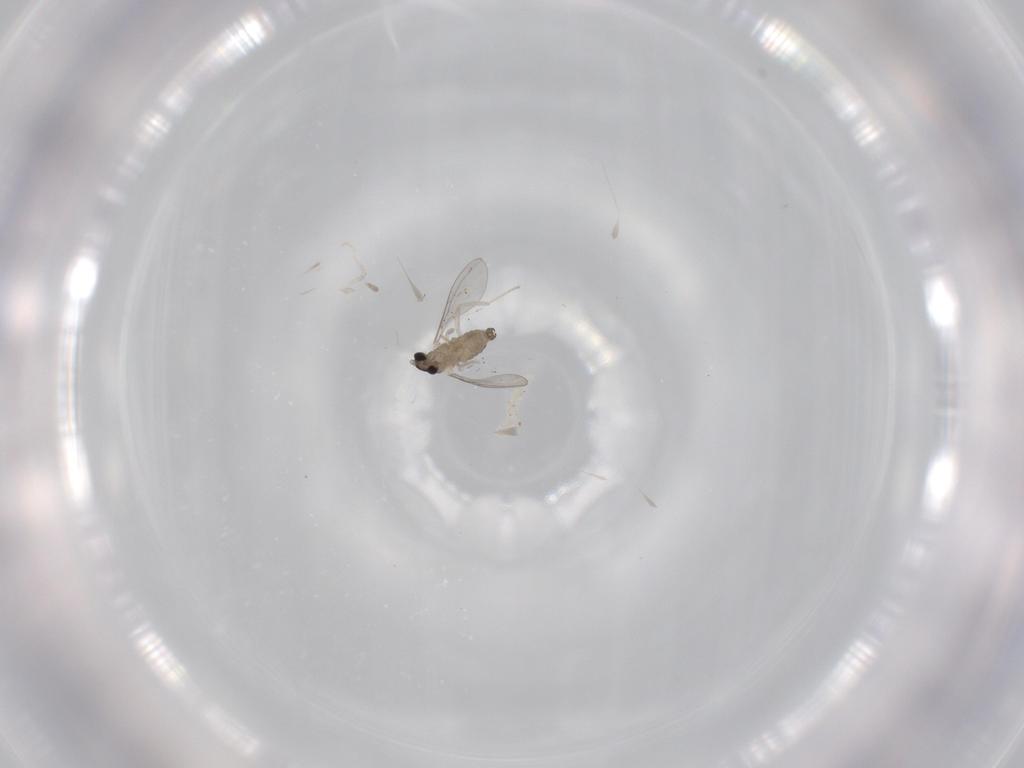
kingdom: Animalia
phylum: Arthropoda
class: Insecta
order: Diptera
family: Cecidomyiidae
